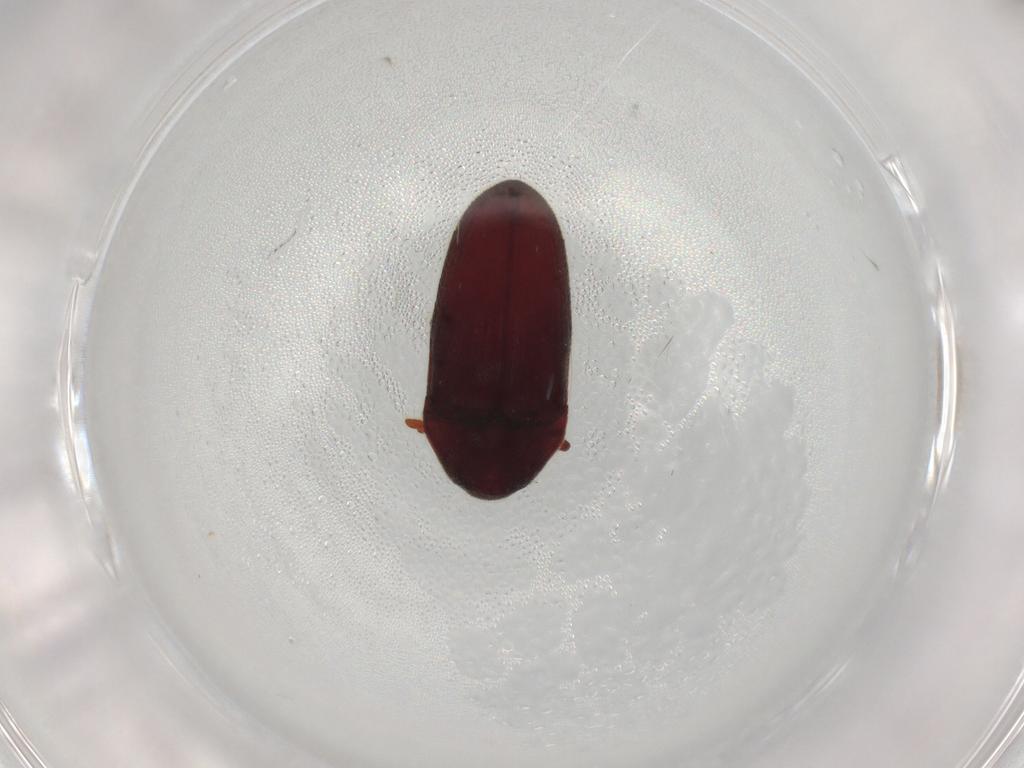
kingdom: Animalia
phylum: Arthropoda
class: Insecta
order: Coleoptera
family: Throscidae
